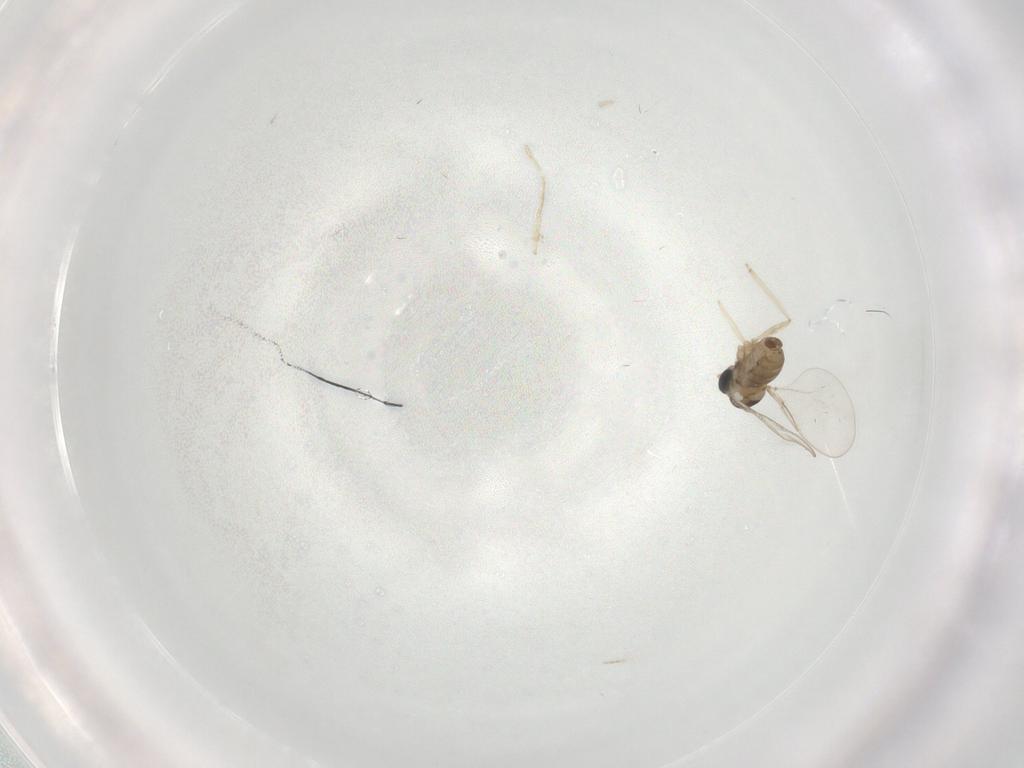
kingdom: Animalia
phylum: Arthropoda
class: Insecta
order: Diptera
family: Cecidomyiidae
